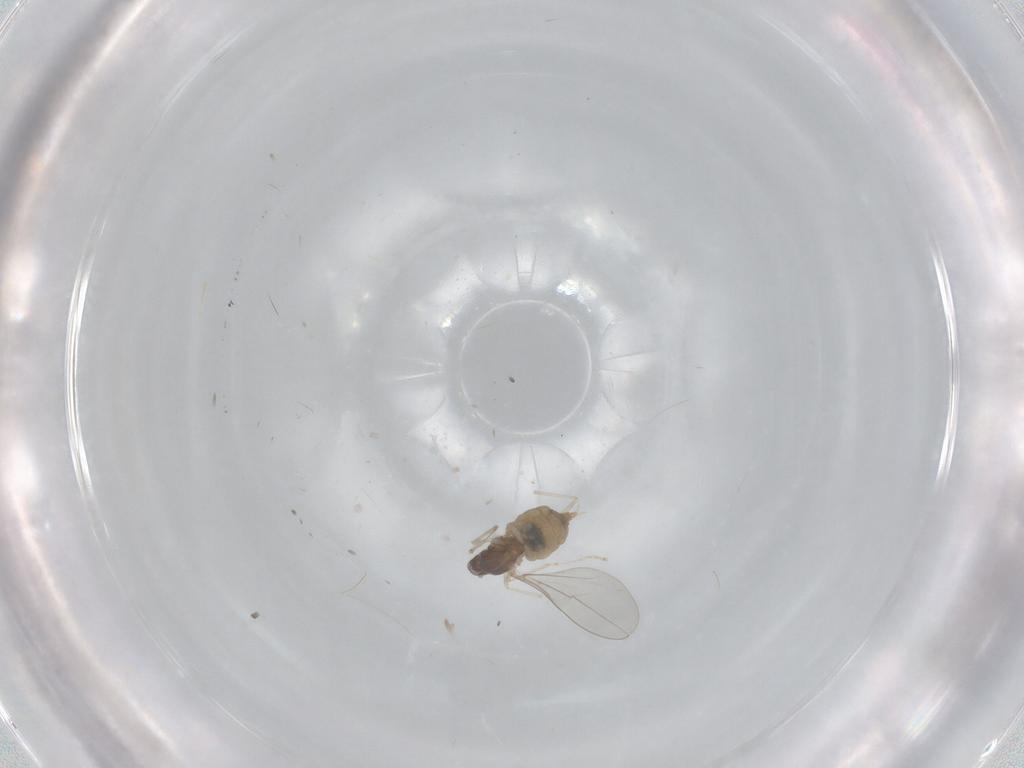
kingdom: Animalia
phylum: Arthropoda
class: Insecta
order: Diptera
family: Cecidomyiidae
